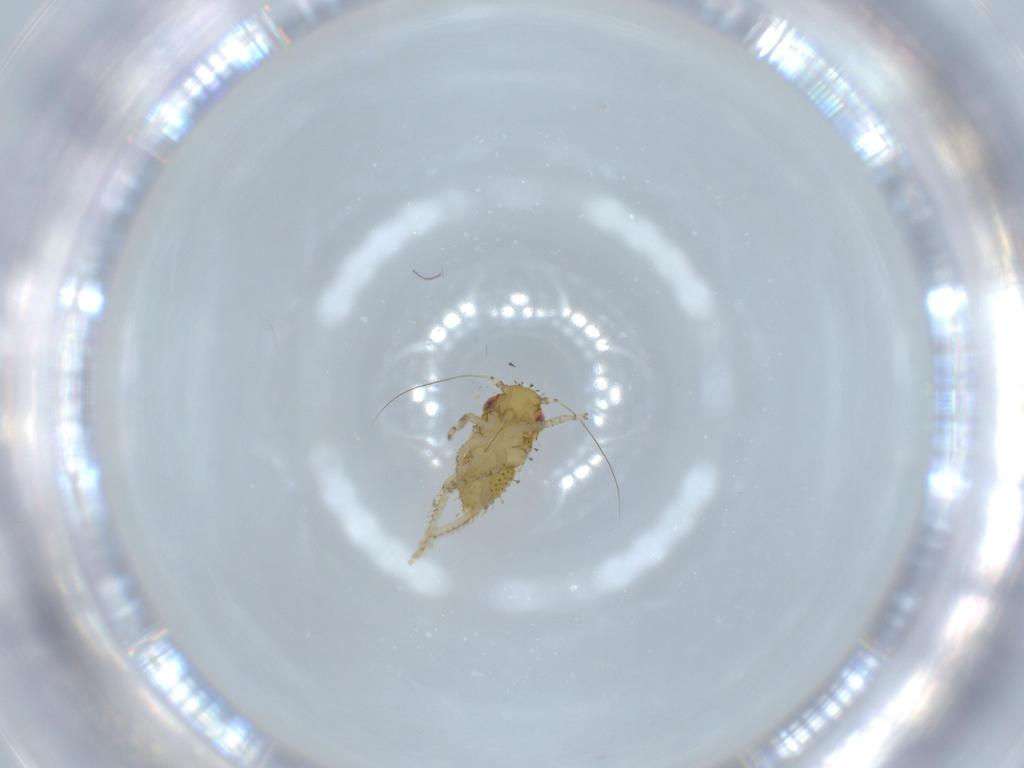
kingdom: Animalia
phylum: Arthropoda
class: Insecta
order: Hemiptera
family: Cicadellidae
